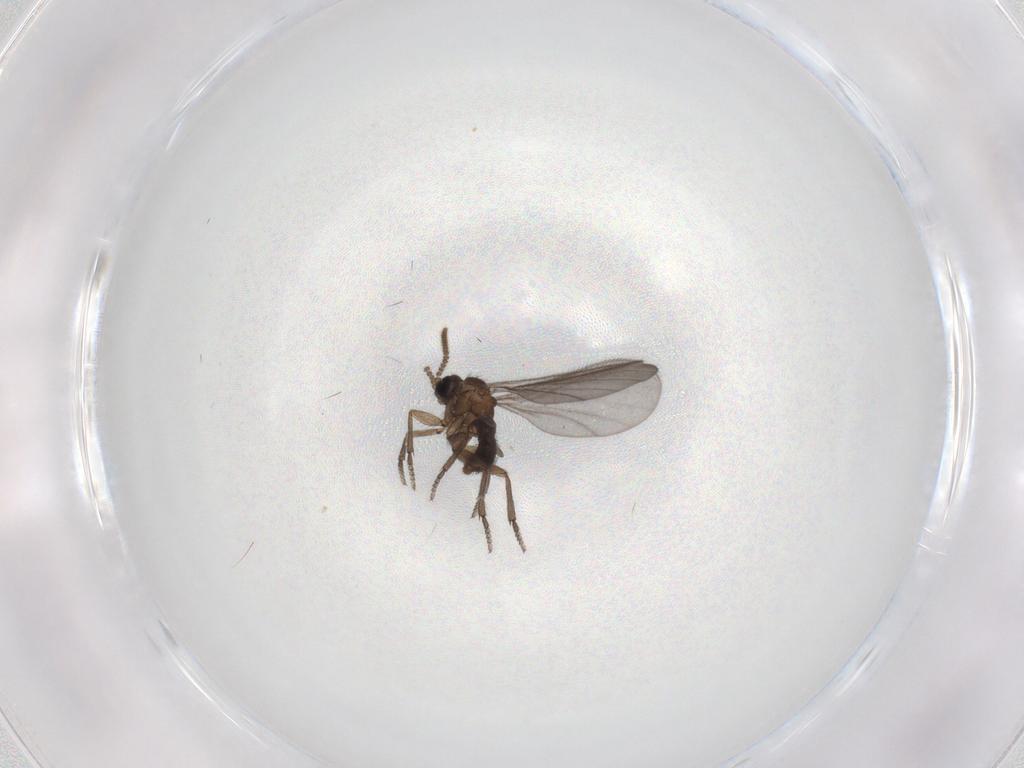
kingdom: Animalia
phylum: Arthropoda
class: Insecta
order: Diptera
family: Sciaridae
